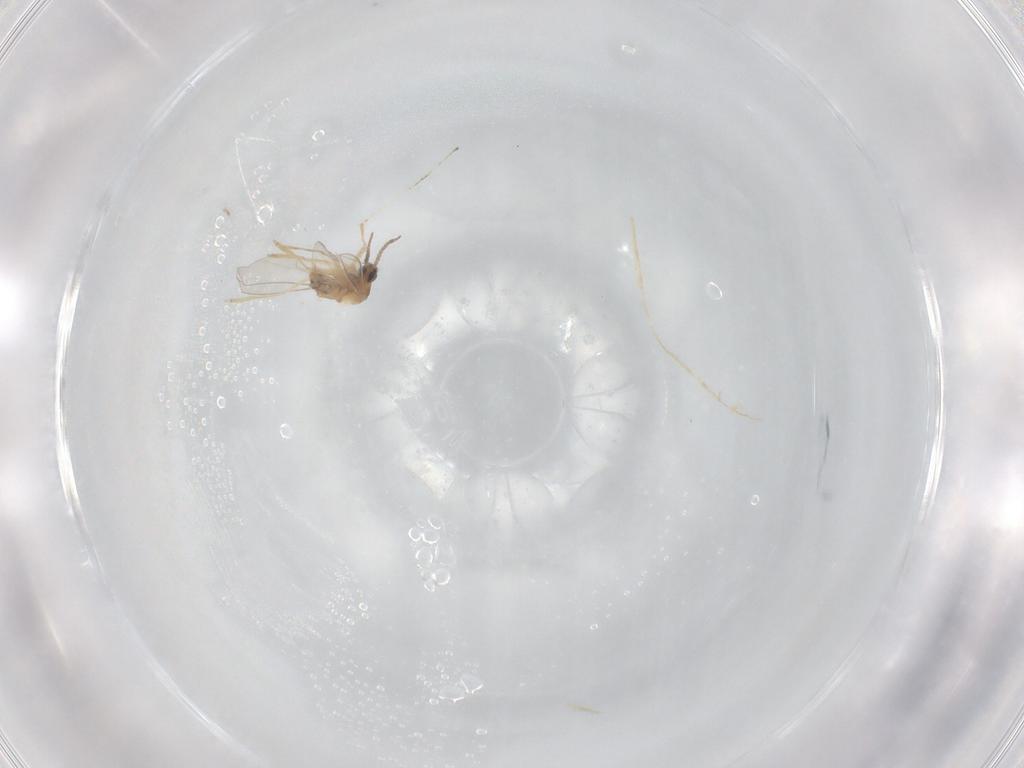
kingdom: Animalia
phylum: Arthropoda
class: Insecta
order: Diptera
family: Cecidomyiidae
